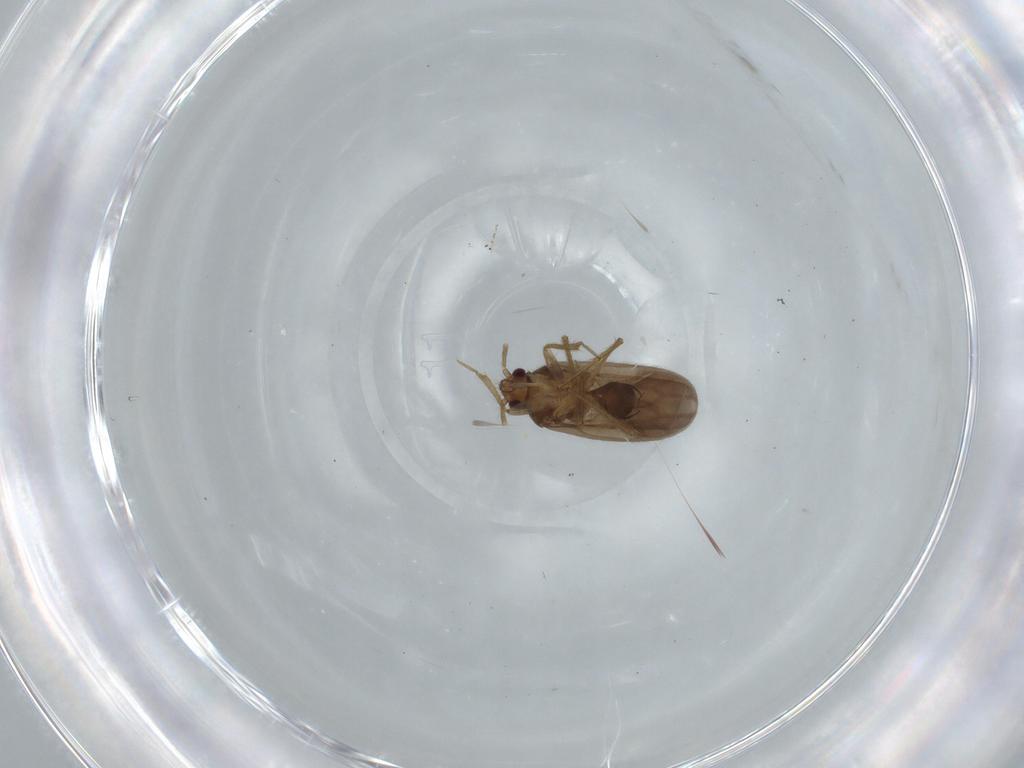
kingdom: Animalia
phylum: Arthropoda
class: Insecta
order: Hemiptera
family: Ceratocombidae
